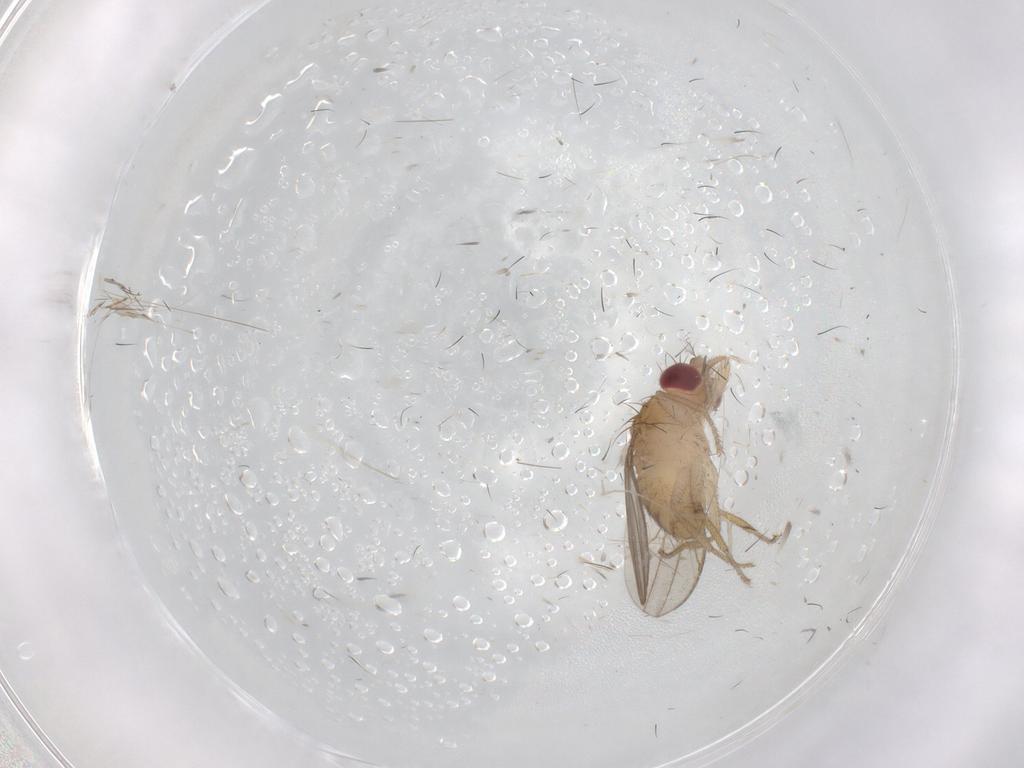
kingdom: Animalia
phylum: Arthropoda
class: Insecta
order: Diptera
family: Drosophilidae
